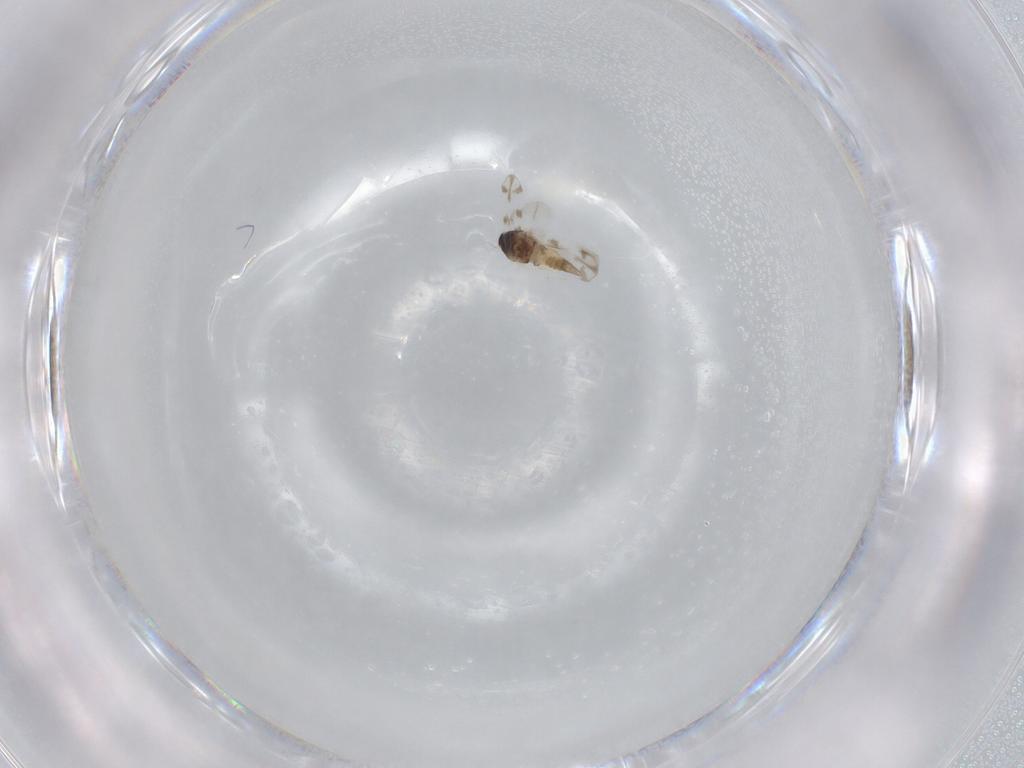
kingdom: Animalia
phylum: Arthropoda
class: Insecta
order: Hemiptera
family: Aleyrodidae
